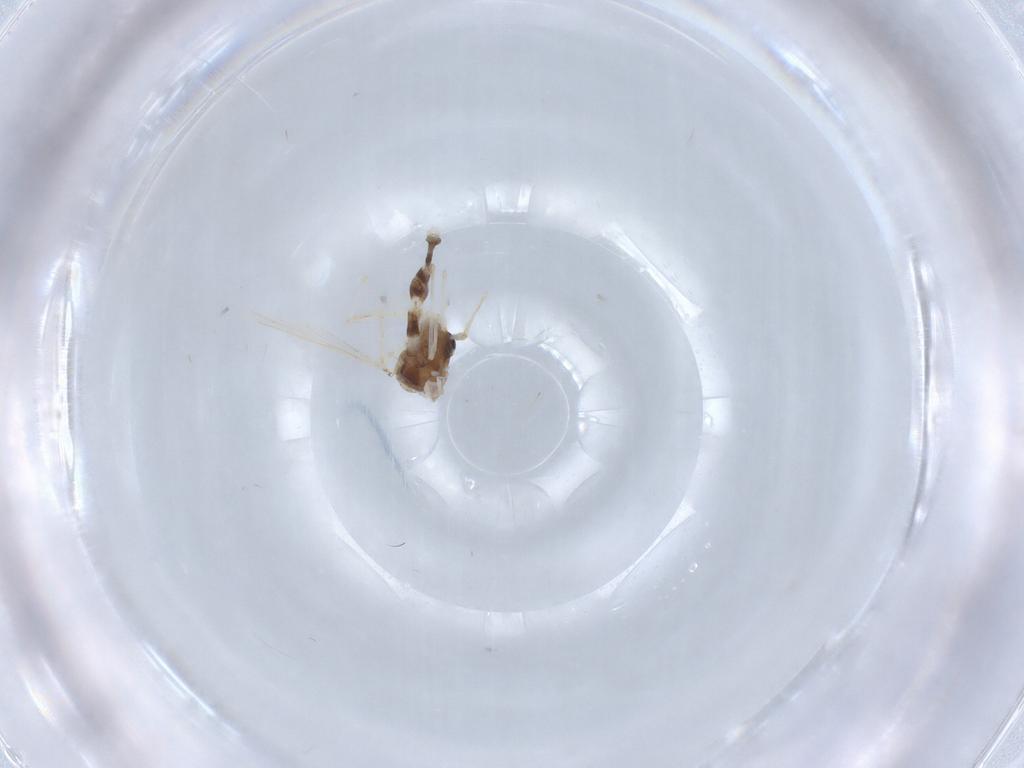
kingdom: Animalia
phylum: Arthropoda
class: Insecta
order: Diptera
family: Chironomidae
